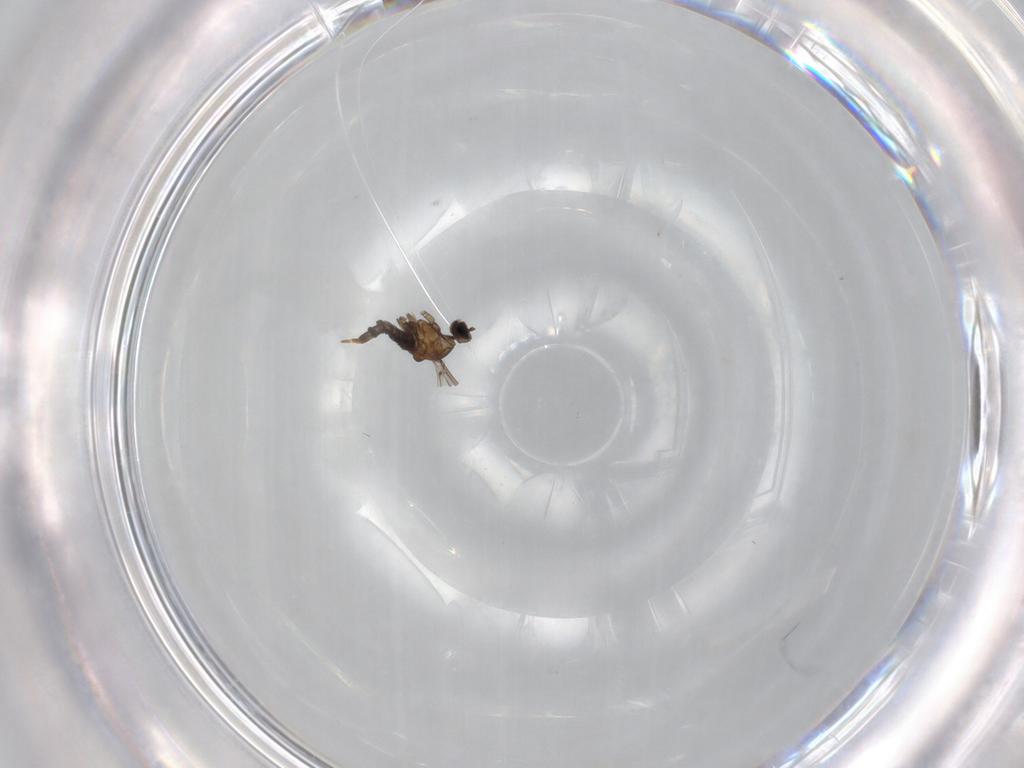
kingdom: Animalia
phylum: Arthropoda
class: Insecta
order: Diptera
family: Cecidomyiidae
